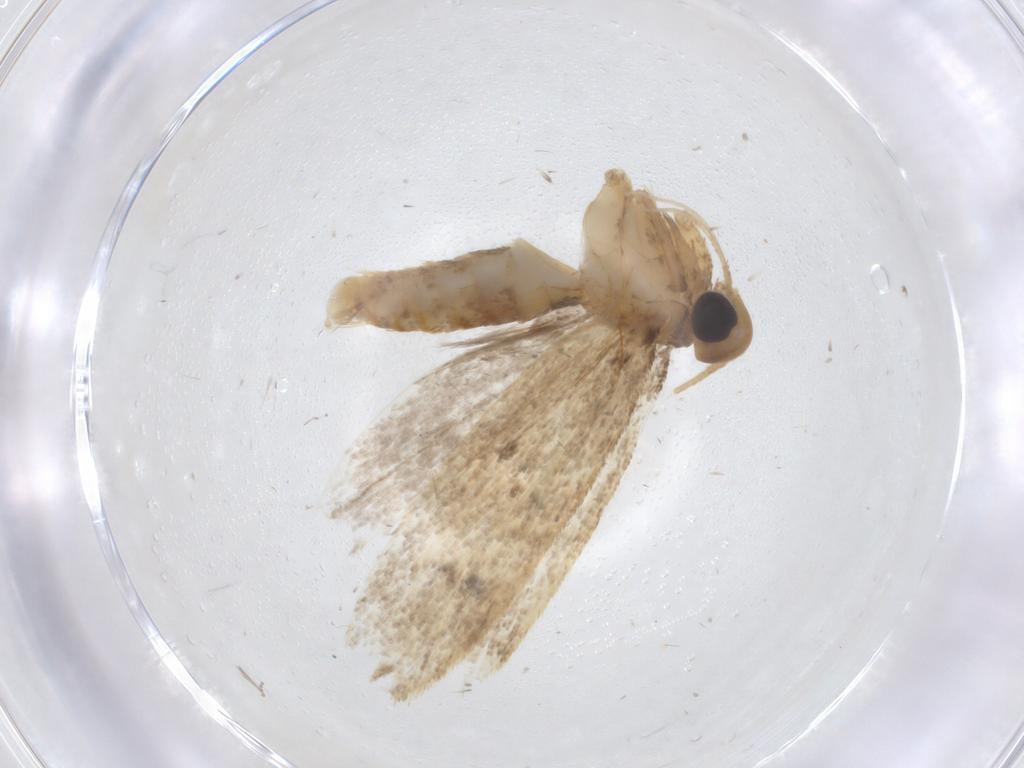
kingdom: Animalia
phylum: Arthropoda
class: Insecta
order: Lepidoptera
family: Oecophoridae
